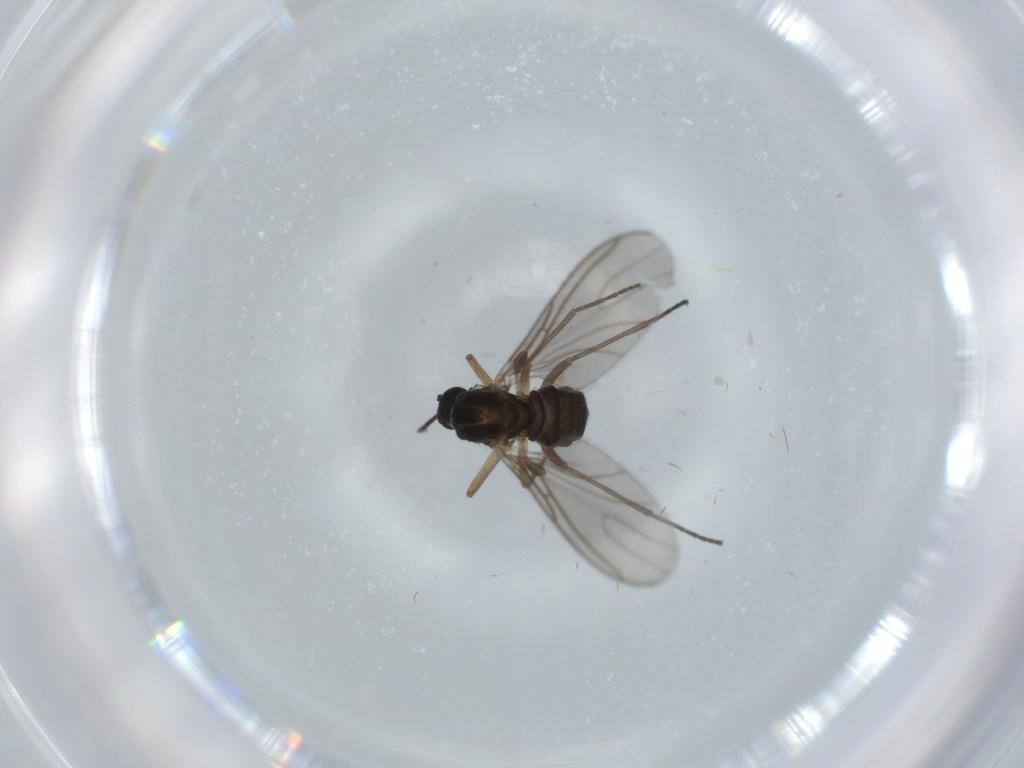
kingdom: Animalia
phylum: Arthropoda
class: Insecta
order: Diptera
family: Sciaridae
